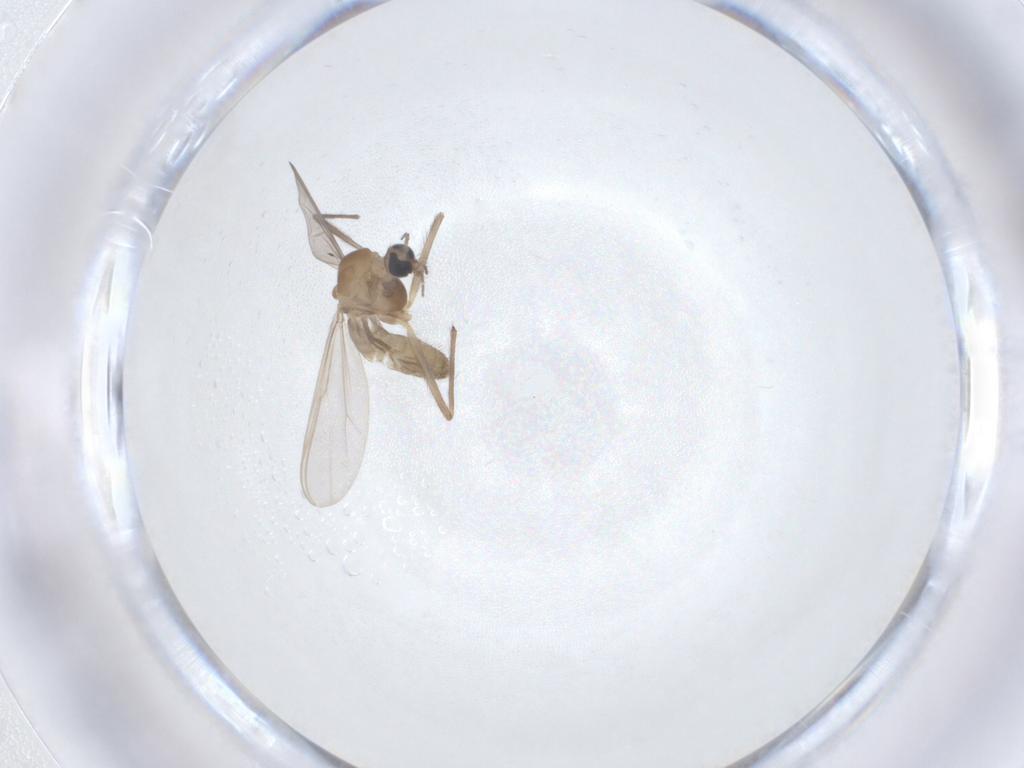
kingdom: Animalia
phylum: Arthropoda
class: Insecta
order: Diptera
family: Chironomidae
